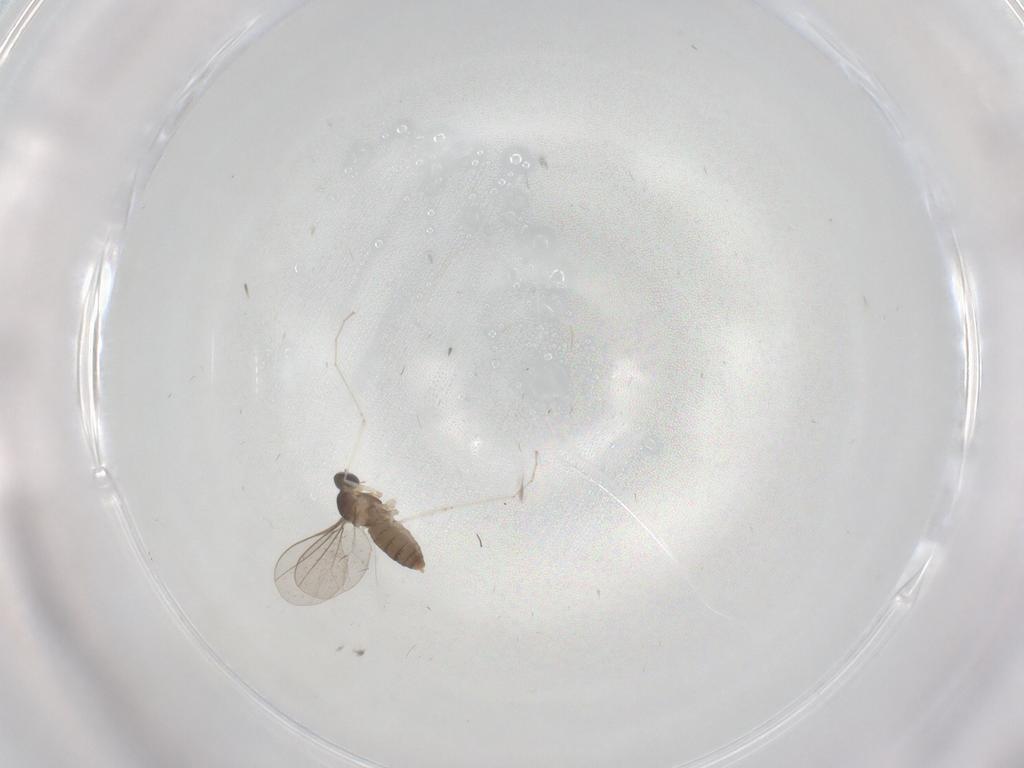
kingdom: Animalia
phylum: Arthropoda
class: Insecta
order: Diptera
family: Cecidomyiidae
